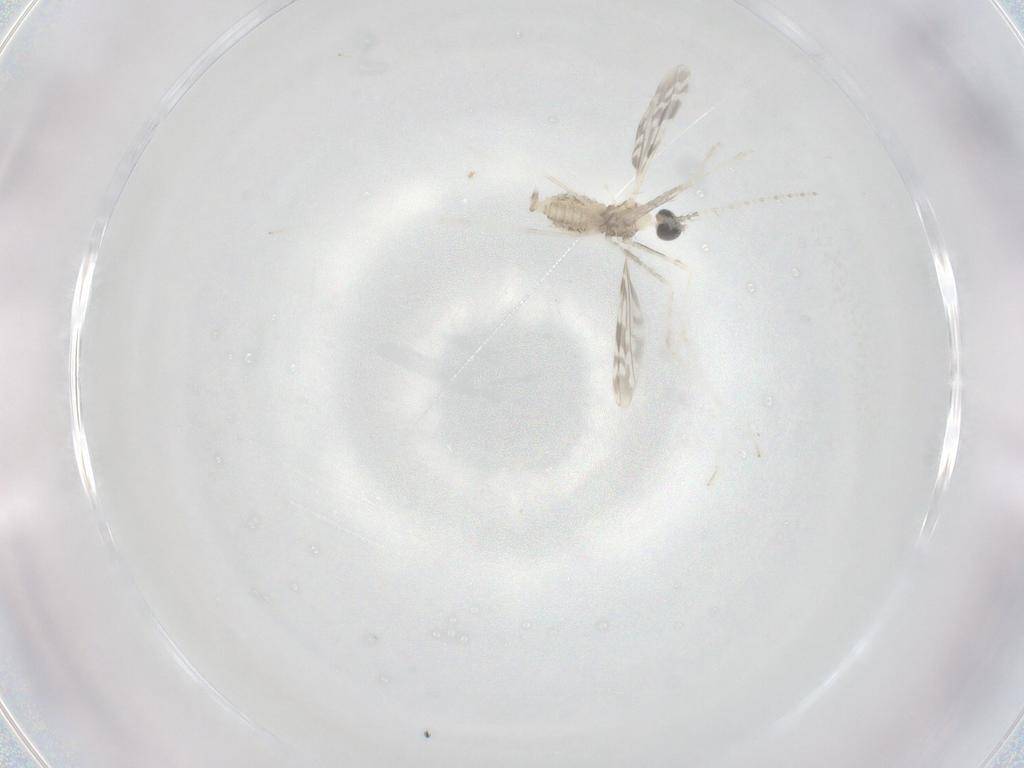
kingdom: Animalia
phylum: Arthropoda
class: Insecta
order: Diptera
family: Cecidomyiidae
